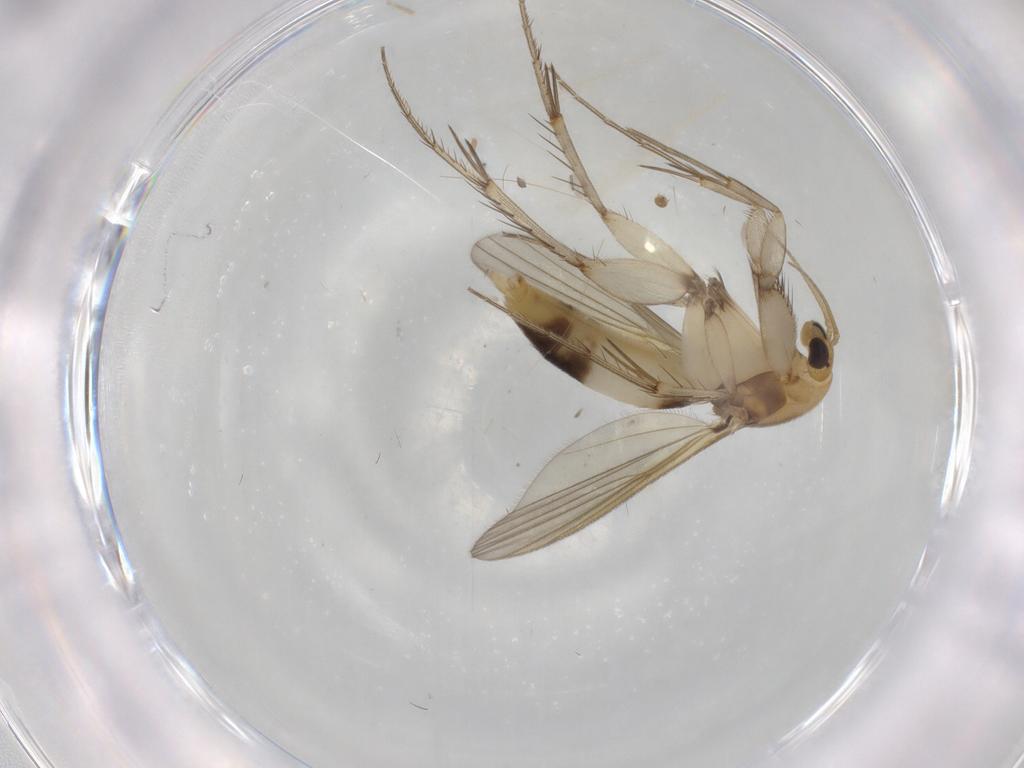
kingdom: Animalia
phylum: Arthropoda
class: Insecta
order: Diptera
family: Mycetophilidae
